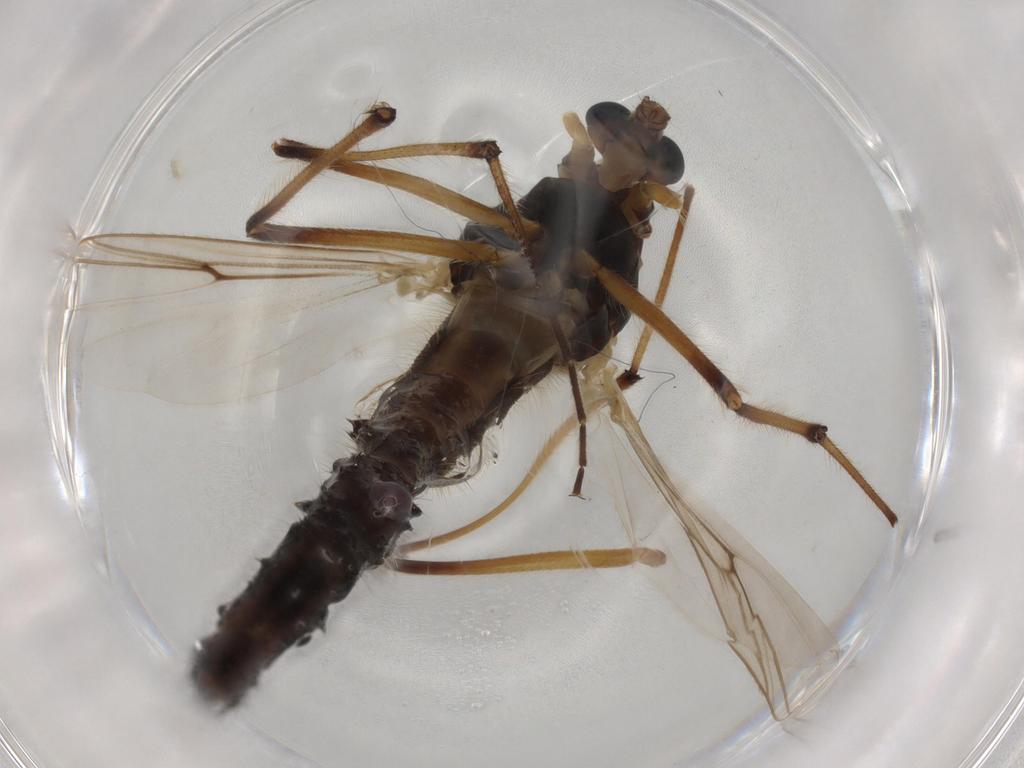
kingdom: Animalia
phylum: Arthropoda
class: Insecta
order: Diptera
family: Chironomidae
